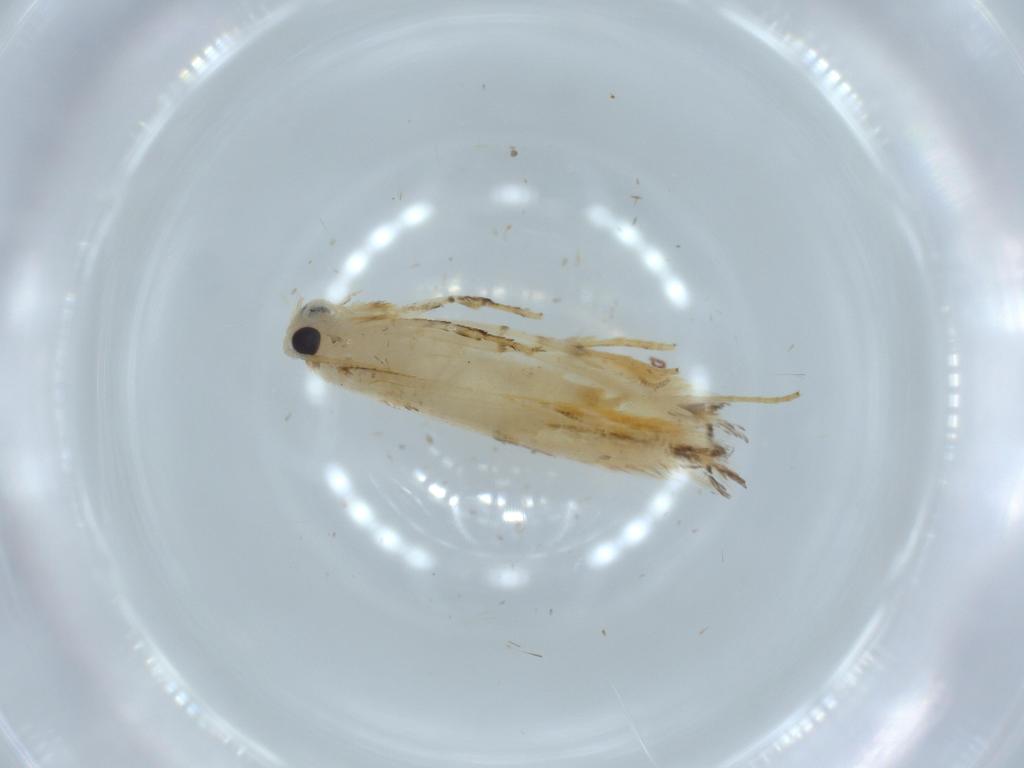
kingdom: Animalia
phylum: Arthropoda
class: Insecta
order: Lepidoptera
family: Tineidae
